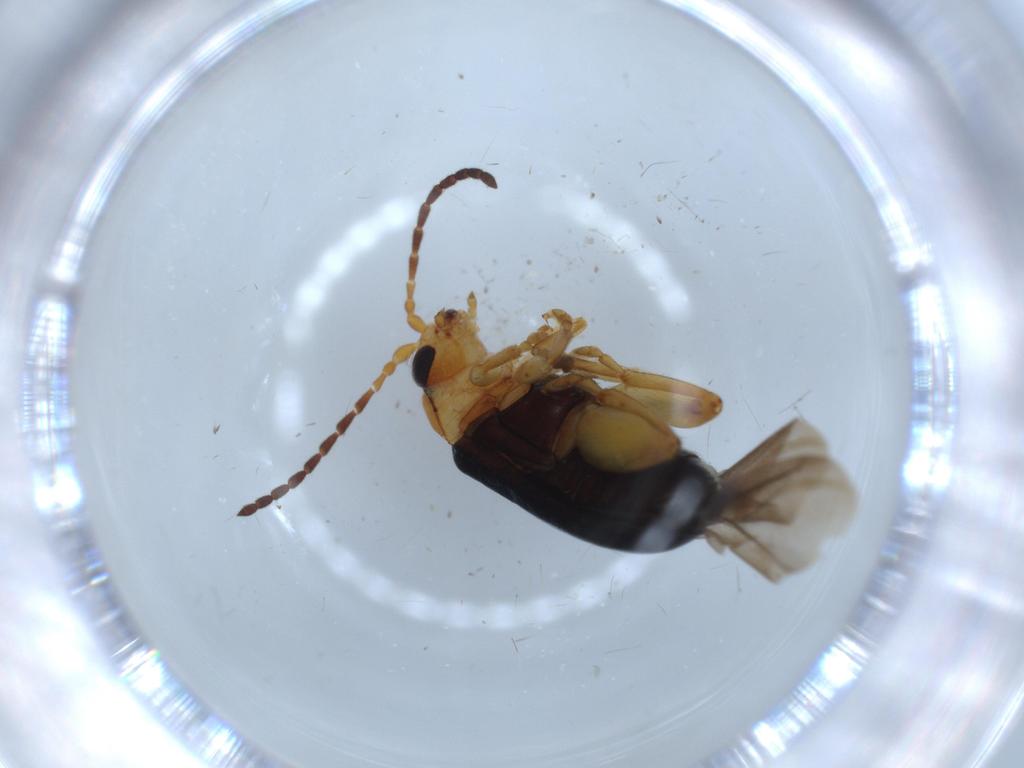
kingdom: Animalia
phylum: Arthropoda
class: Insecta
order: Coleoptera
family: Chrysomelidae
